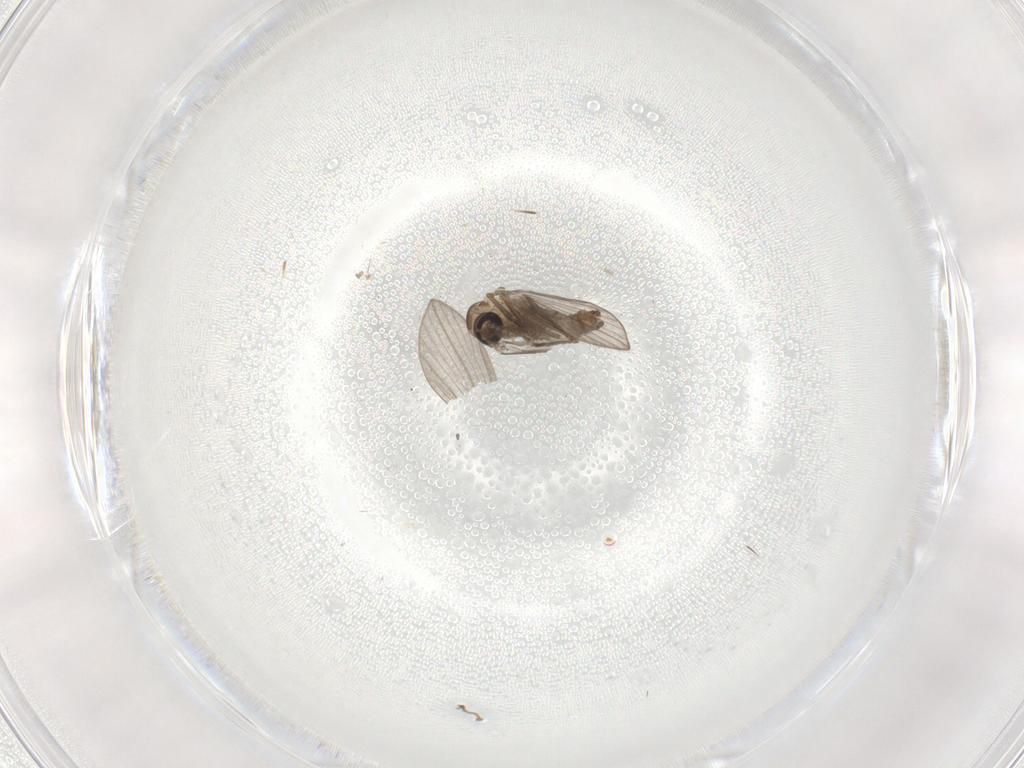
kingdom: Animalia
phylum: Arthropoda
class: Insecta
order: Diptera
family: Psychodidae
